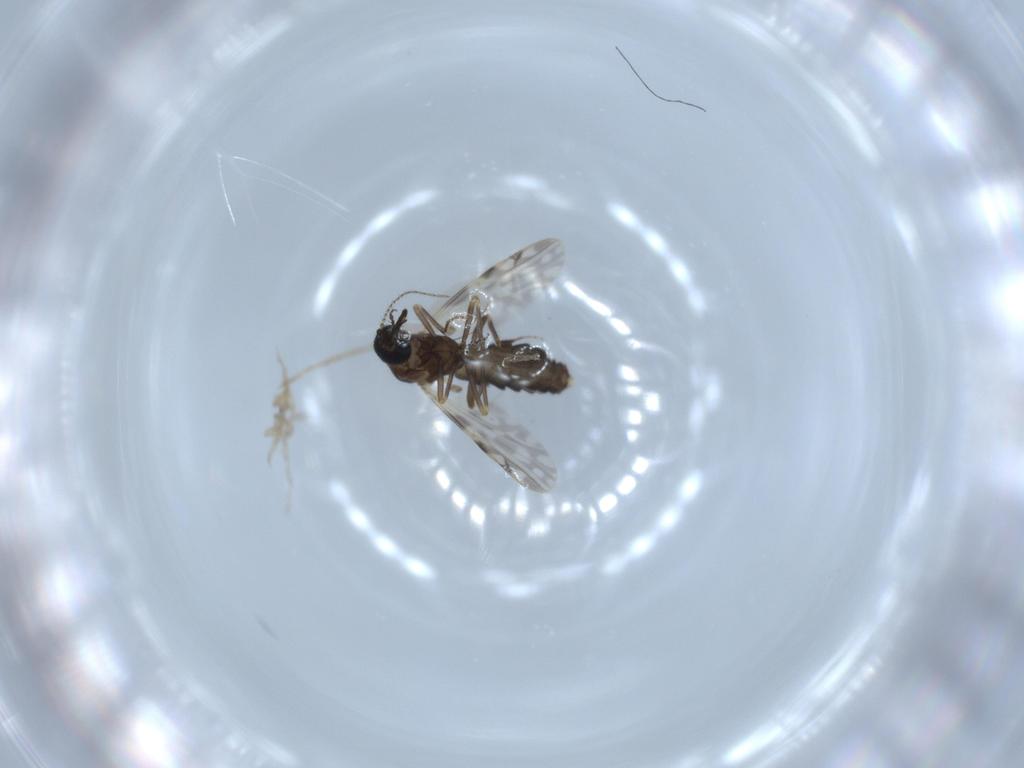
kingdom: Animalia
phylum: Arthropoda
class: Insecta
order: Diptera
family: Ceratopogonidae
